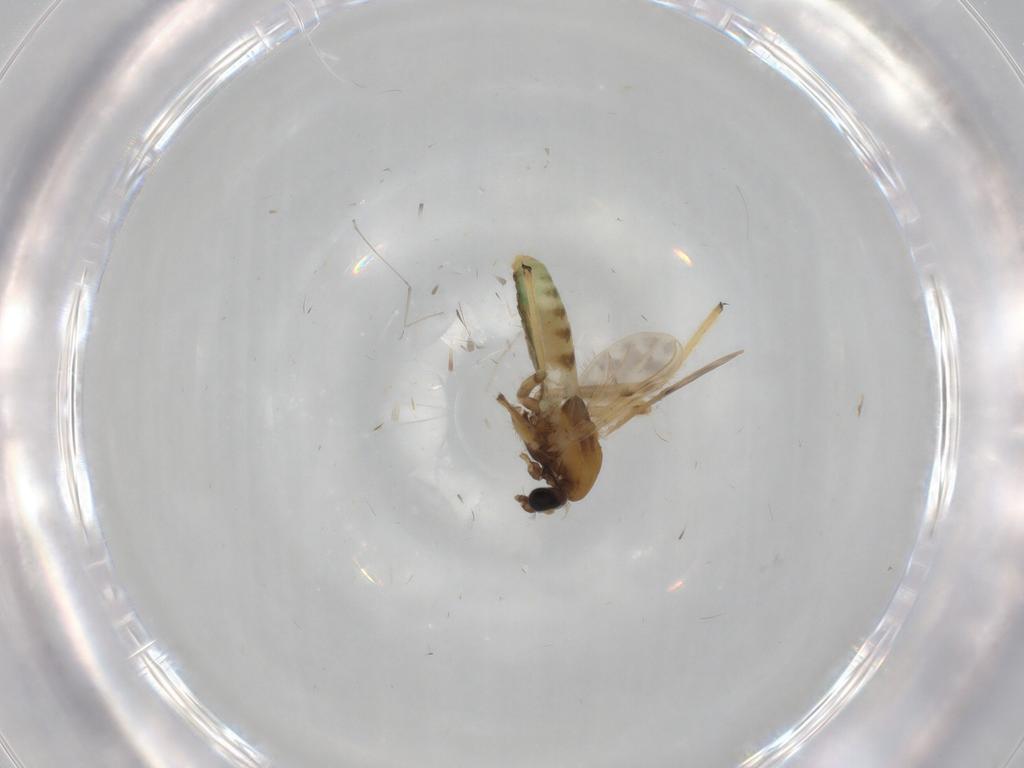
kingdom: Animalia
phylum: Arthropoda
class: Insecta
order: Diptera
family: Chironomidae
